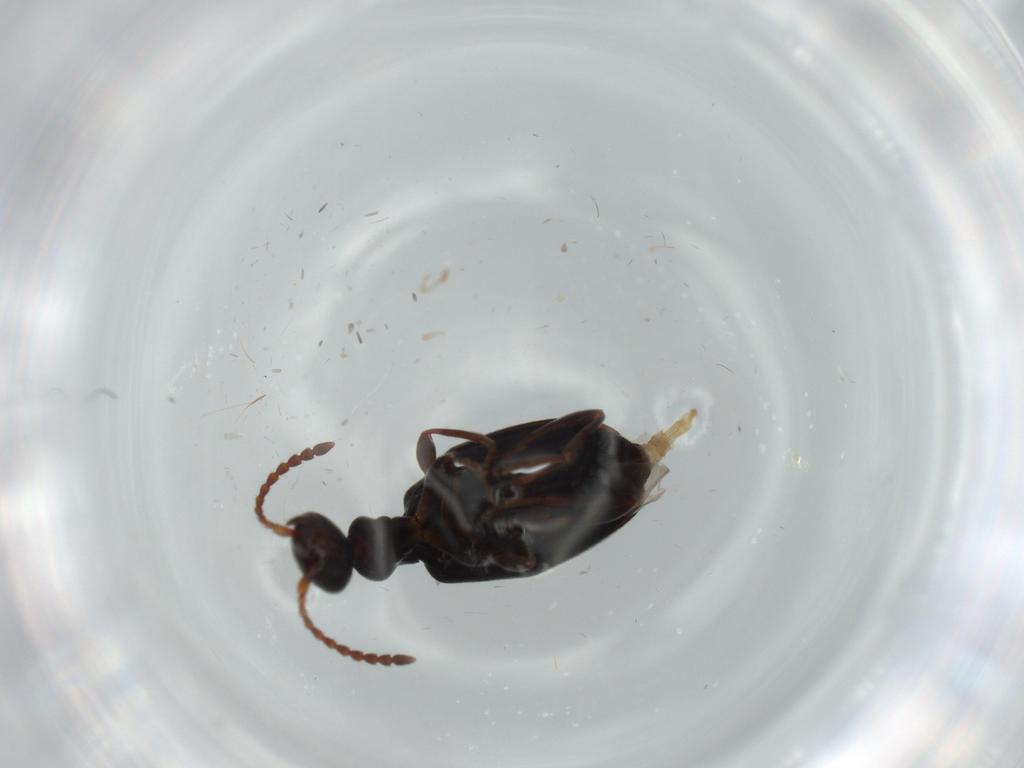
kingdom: Animalia
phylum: Arthropoda
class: Insecta
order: Coleoptera
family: Anthicidae
